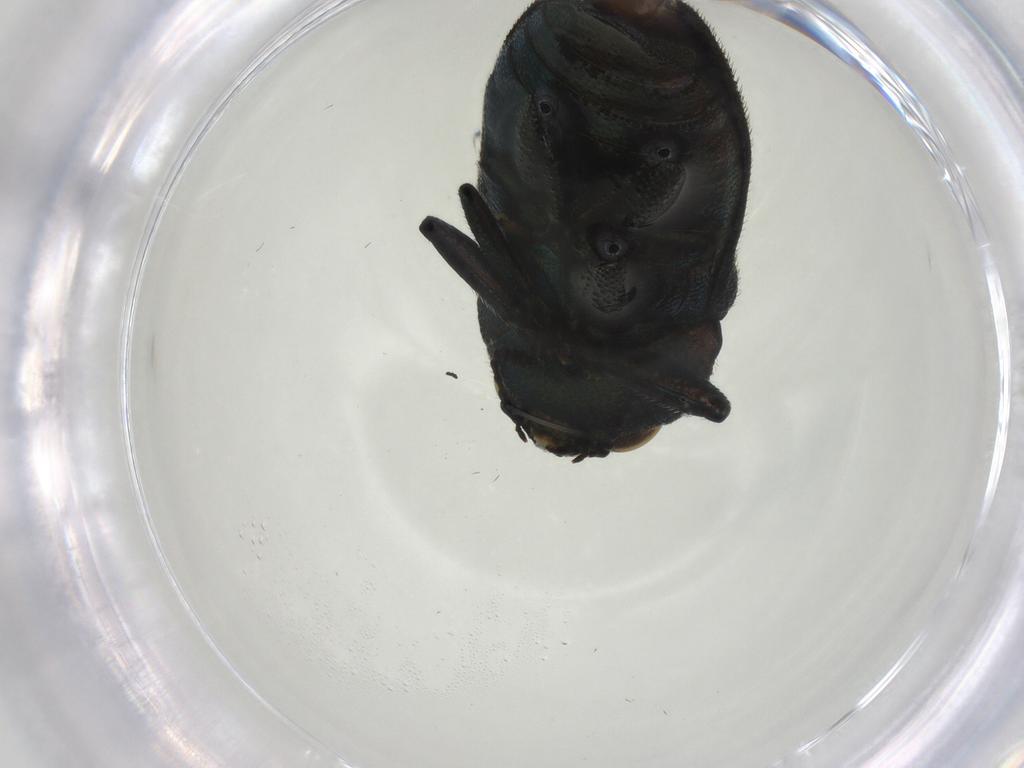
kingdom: Animalia
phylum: Arthropoda
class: Insecta
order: Coleoptera
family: Buprestidae
